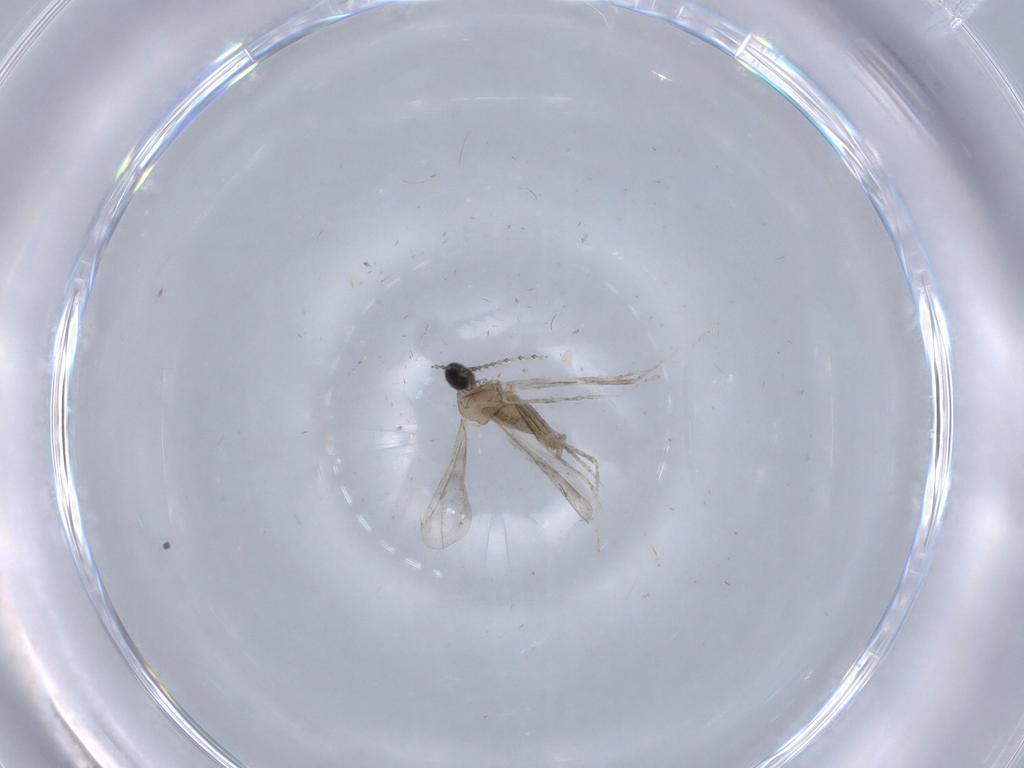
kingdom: Animalia
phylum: Arthropoda
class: Insecta
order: Diptera
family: Cecidomyiidae
